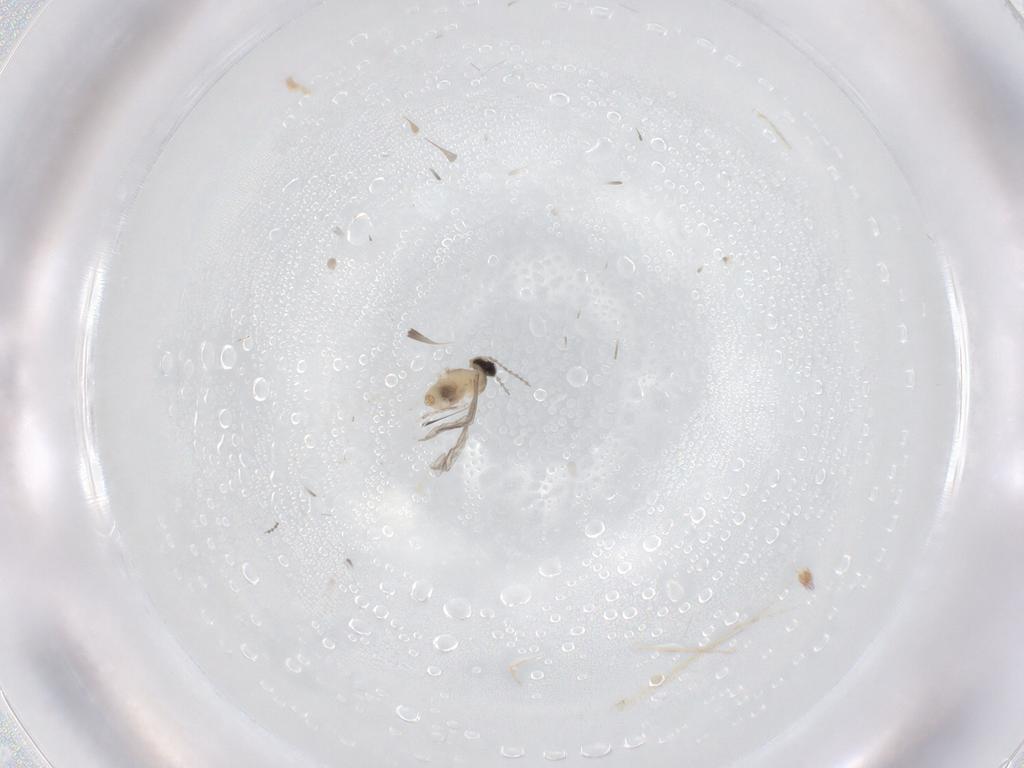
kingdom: Animalia
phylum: Arthropoda
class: Insecta
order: Diptera
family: Cecidomyiidae
